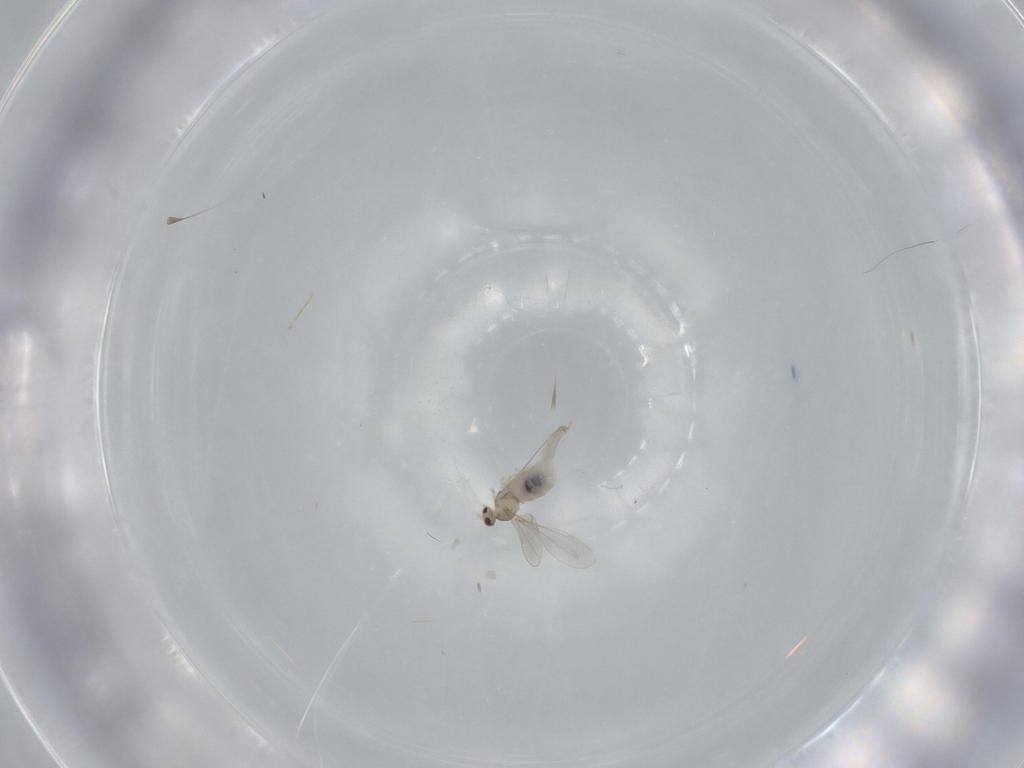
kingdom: Animalia
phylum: Arthropoda
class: Insecta
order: Diptera
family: Cecidomyiidae
